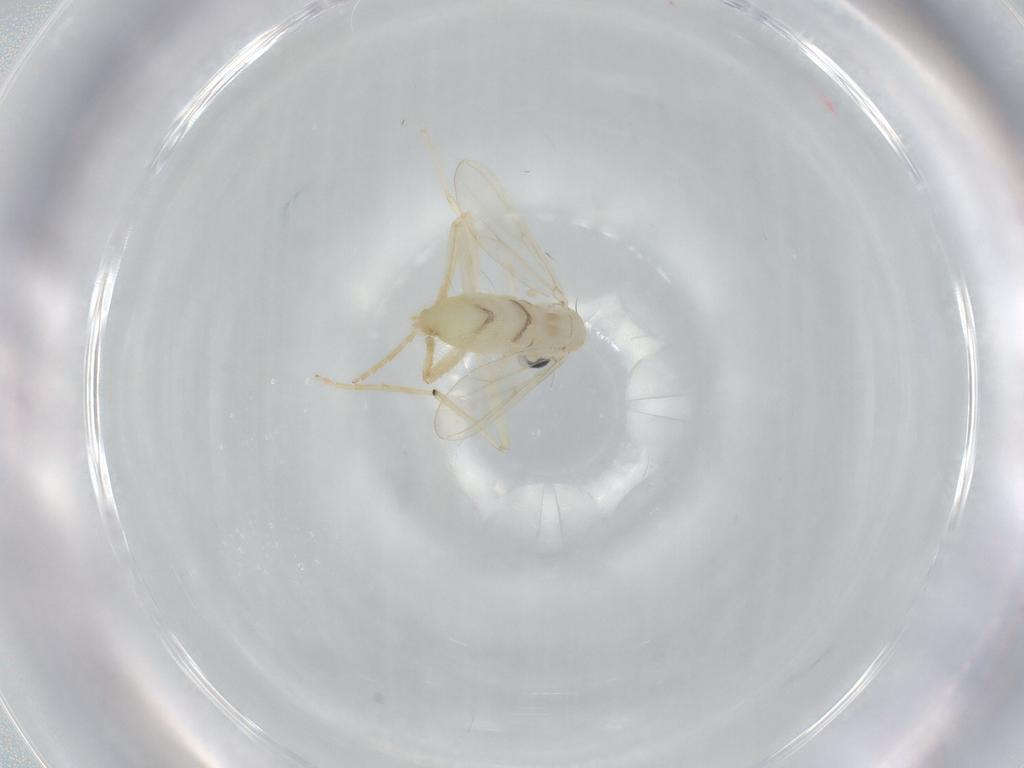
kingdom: Animalia
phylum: Arthropoda
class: Insecta
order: Diptera
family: Chironomidae
